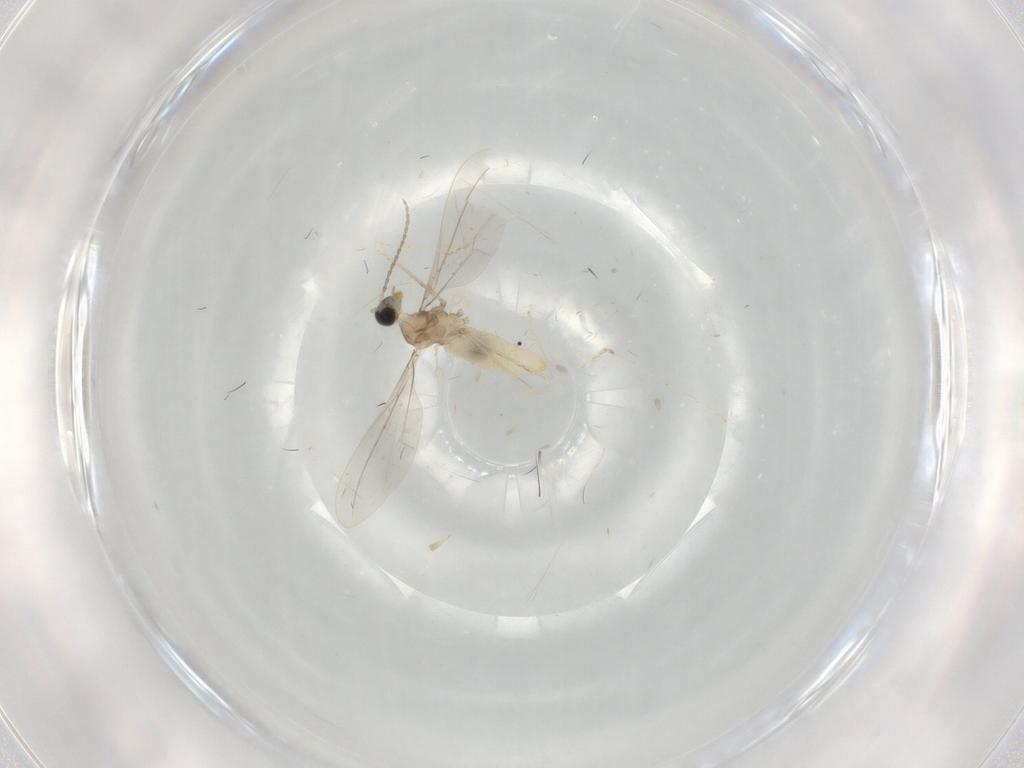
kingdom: Animalia
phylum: Arthropoda
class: Insecta
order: Diptera
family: Cecidomyiidae
